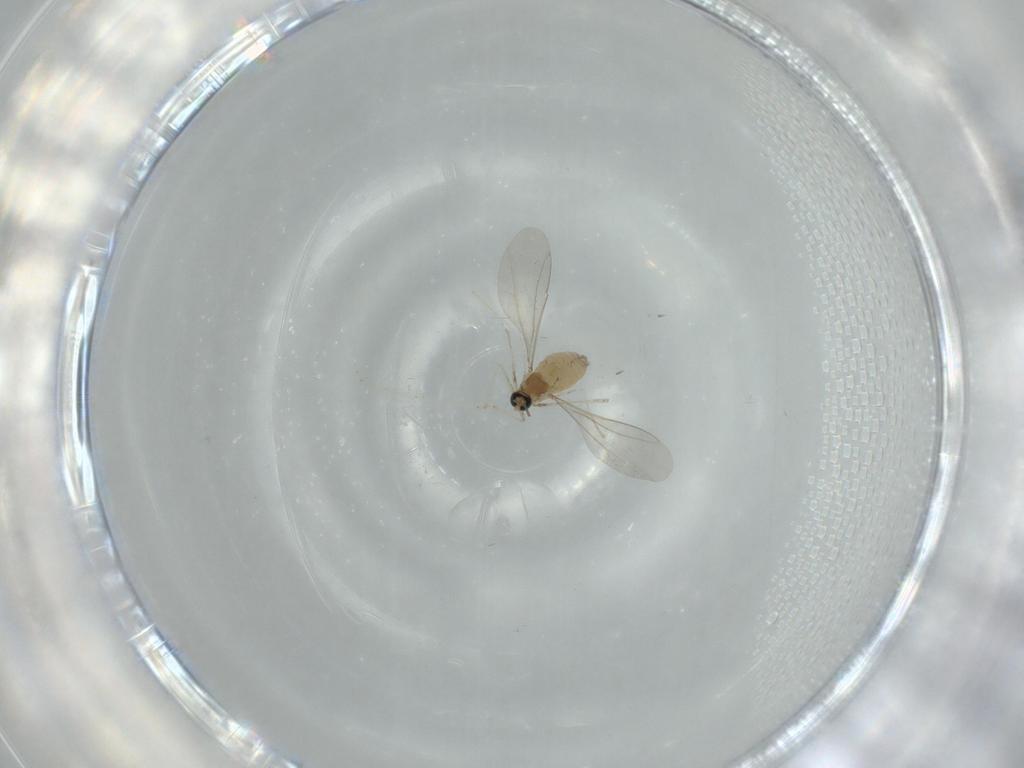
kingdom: Animalia
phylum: Arthropoda
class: Insecta
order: Diptera
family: Cecidomyiidae
